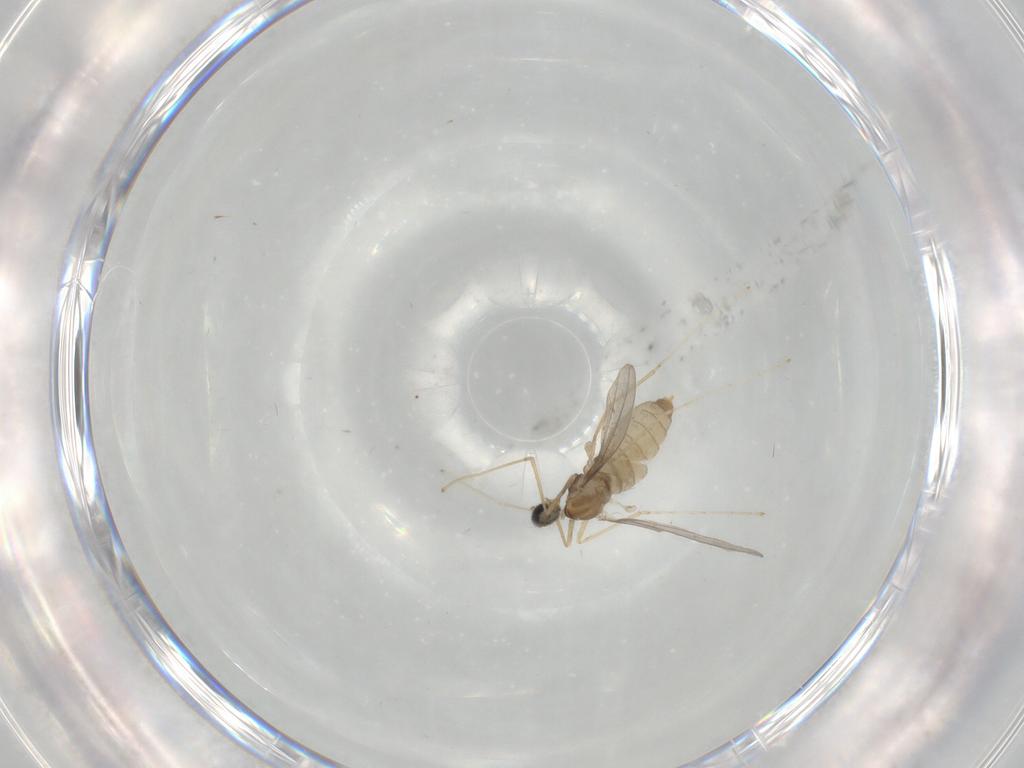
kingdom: Animalia
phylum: Arthropoda
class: Insecta
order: Diptera
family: Cecidomyiidae
